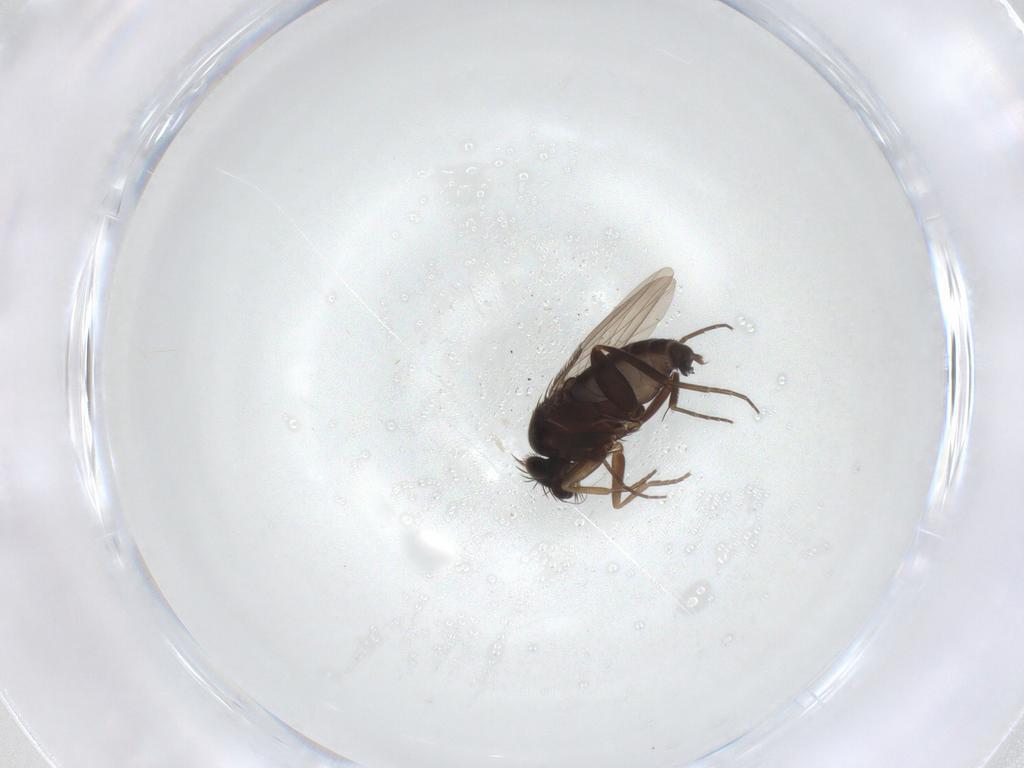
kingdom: Animalia
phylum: Arthropoda
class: Insecta
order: Diptera
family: Phoridae
